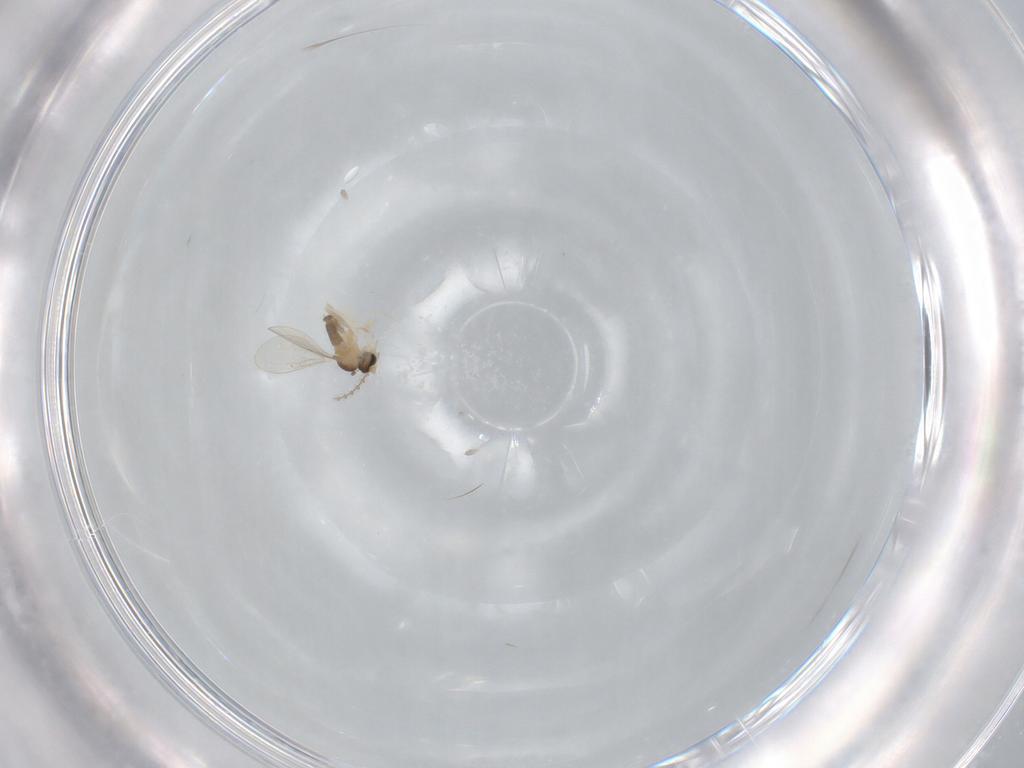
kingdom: Animalia
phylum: Arthropoda
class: Insecta
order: Diptera
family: Cecidomyiidae
